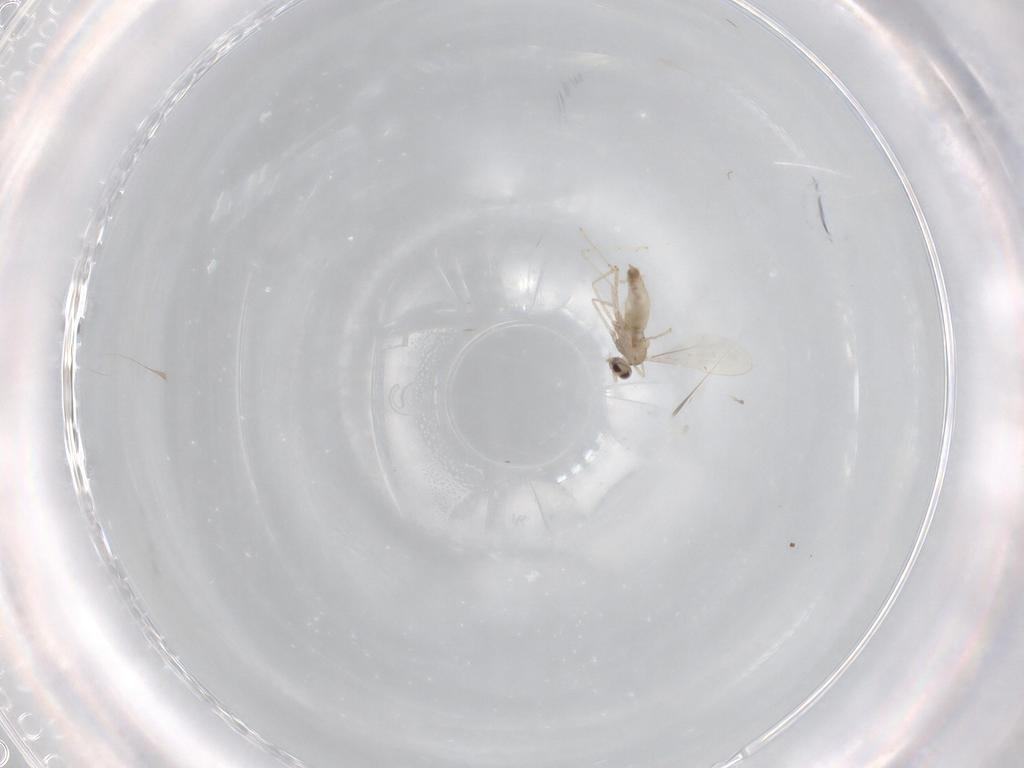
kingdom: Animalia
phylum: Arthropoda
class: Insecta
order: Diptera
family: Cecidomyiidae
